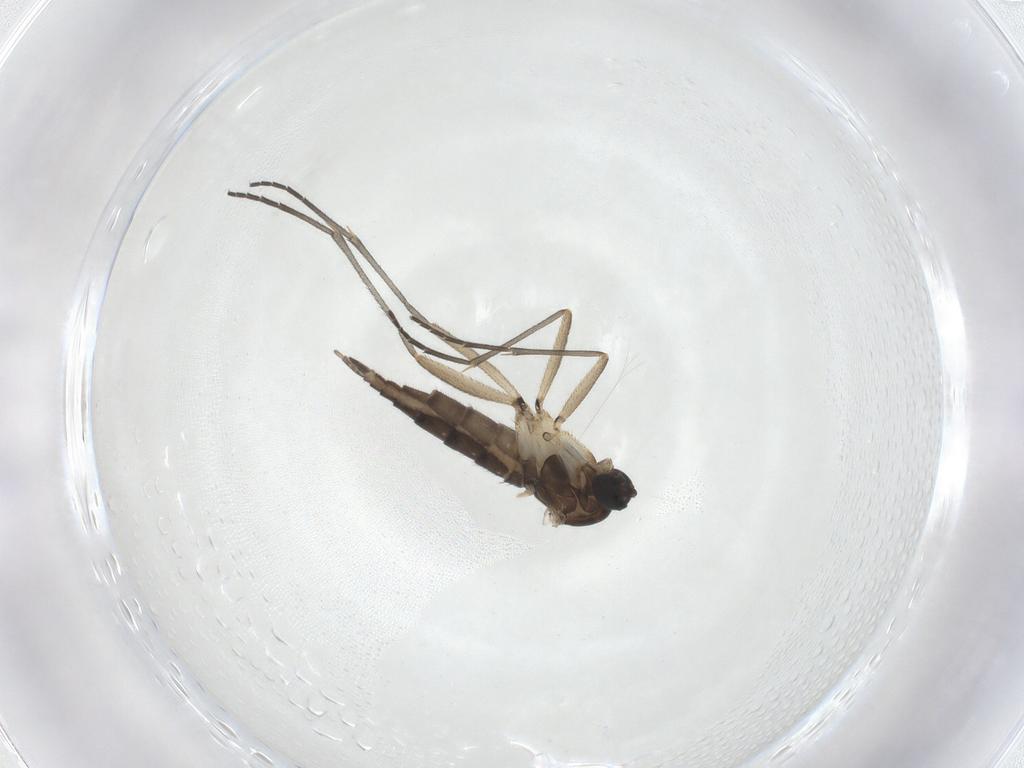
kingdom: Animalia
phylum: Arthropoda
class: Insecta
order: Diptera
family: Sciaridae
